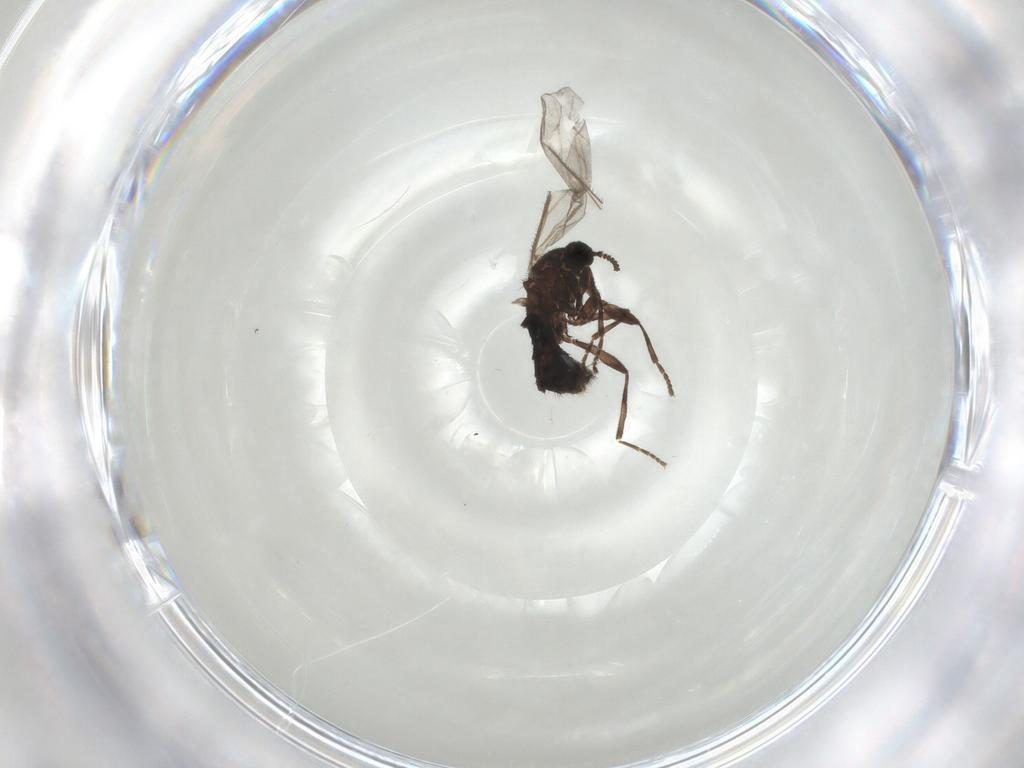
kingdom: Animalia
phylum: Arthropoda
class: Insecta
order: Diptera
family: Scatopsidae
